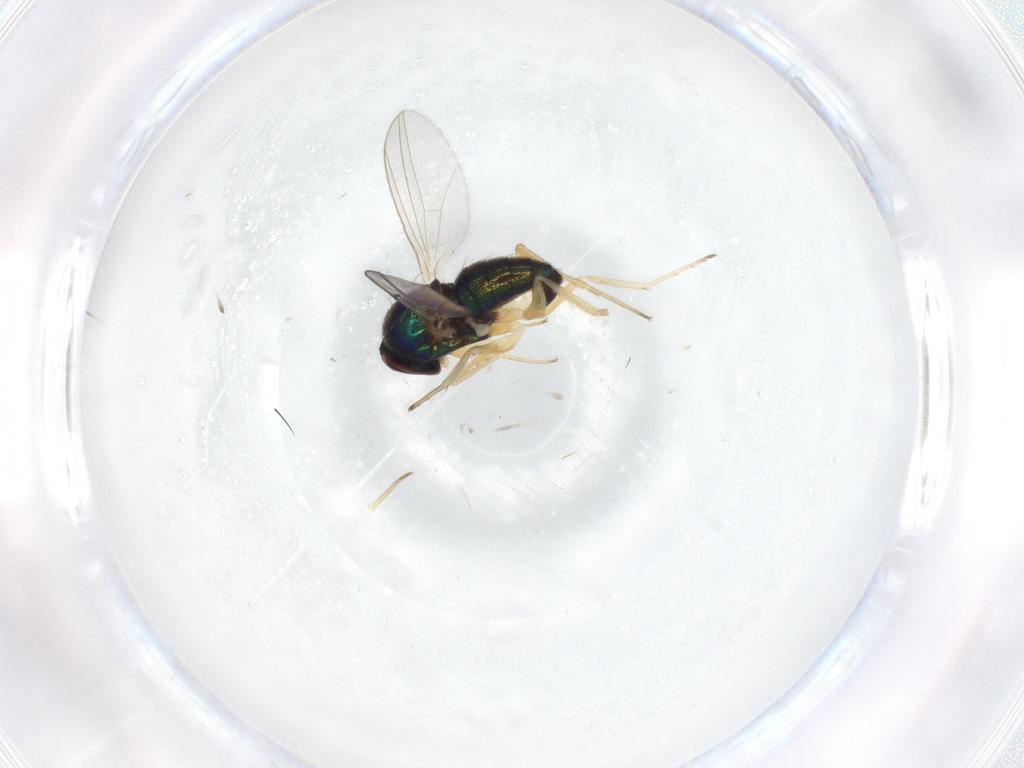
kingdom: Animalia
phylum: Arthropoda
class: Insecta
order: Diptera
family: Dolichopodidae
